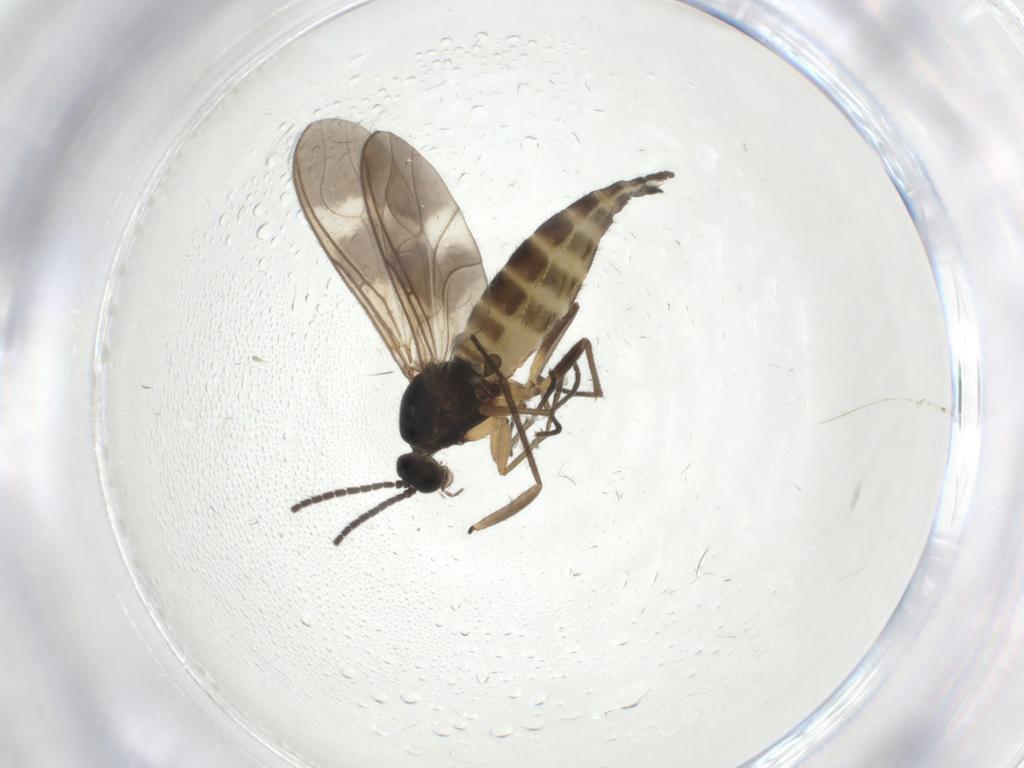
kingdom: Animalia
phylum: Arthropoda
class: Insecta
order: Diptera
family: Sciaridae
